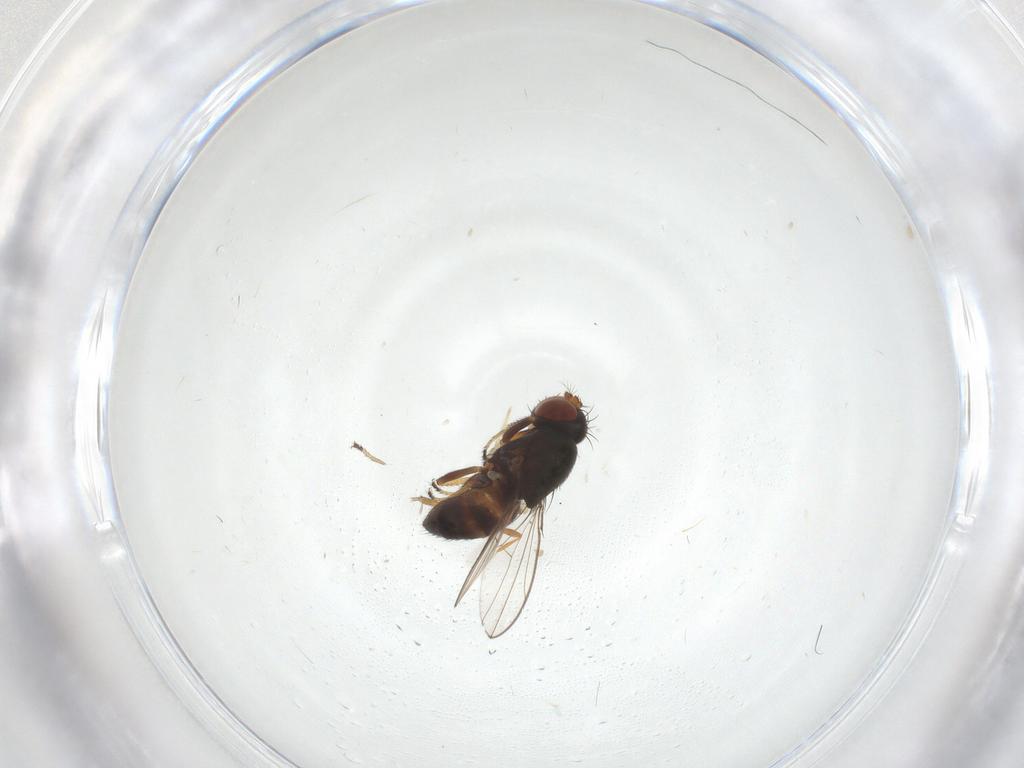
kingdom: Animalia
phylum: Arthropoda
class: Insecta
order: Diptera
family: Ephydridae
